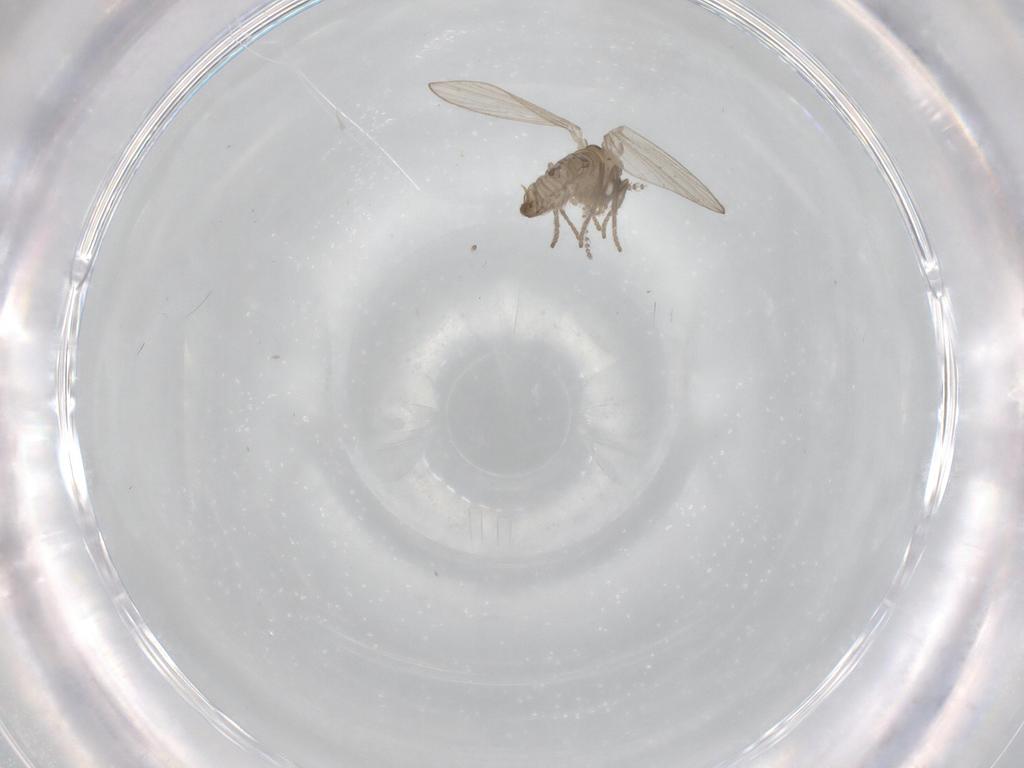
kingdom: Animalia
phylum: Arthropoda
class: Insecta
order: Diptera
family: Psychodidae
